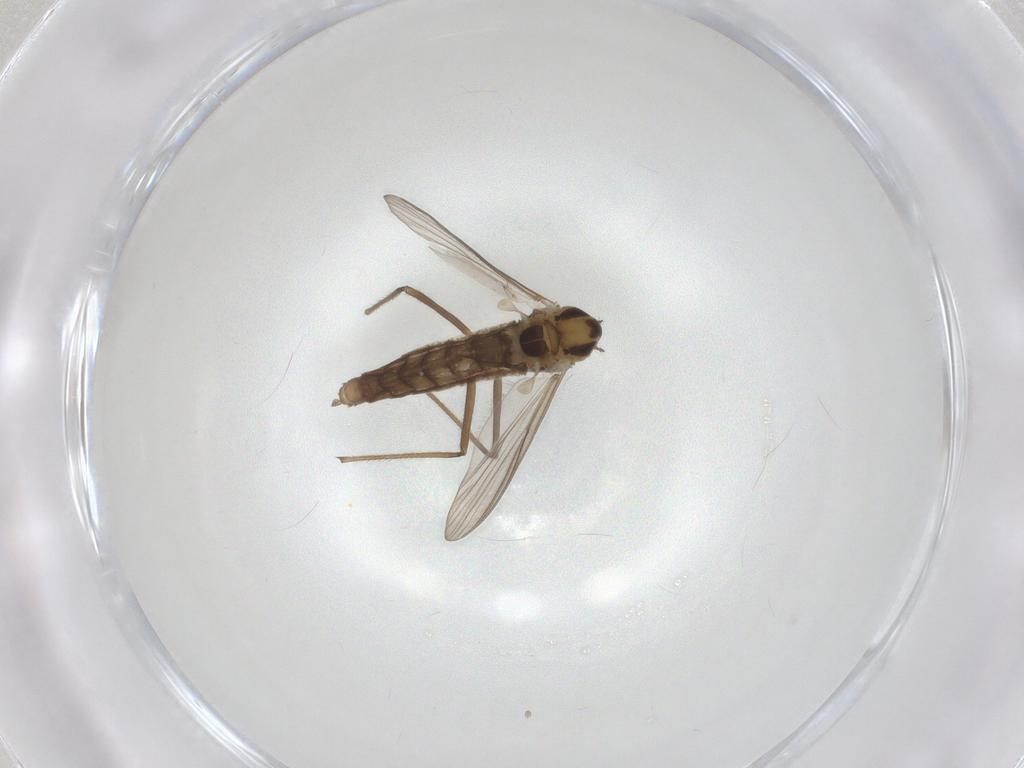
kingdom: Animalia
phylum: Arthropoda
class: Insecta
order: Diptera
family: Chironomidae
